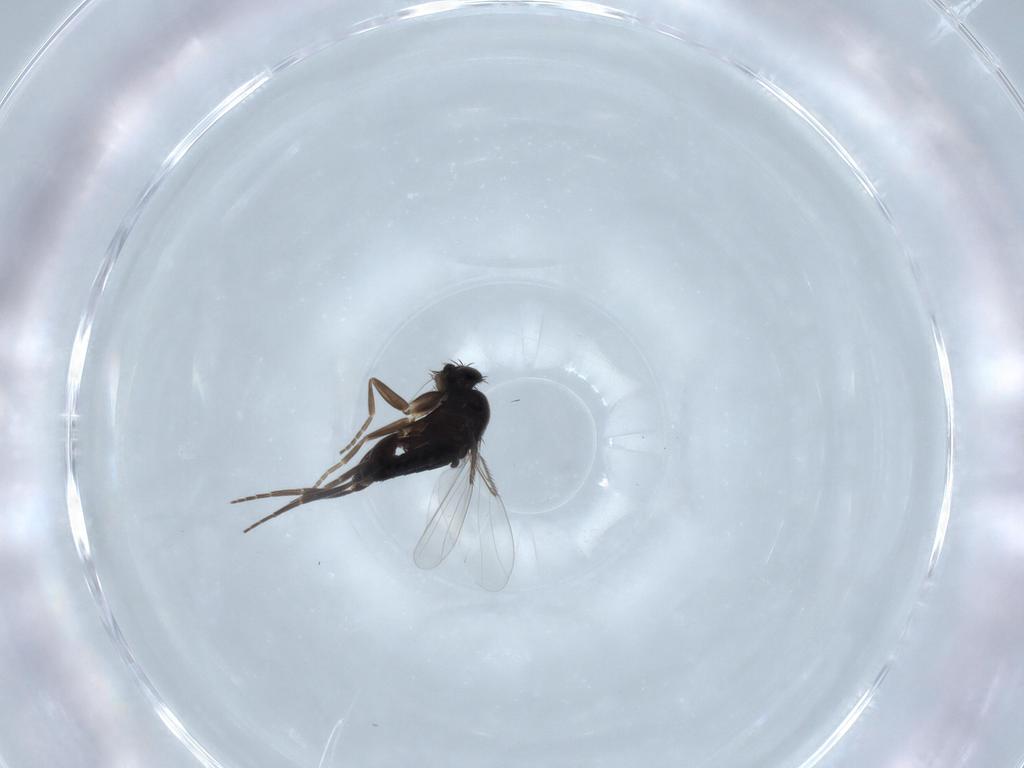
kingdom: Animalia
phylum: Arthropoda
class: Insecta
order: Diptera
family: Phoridae
